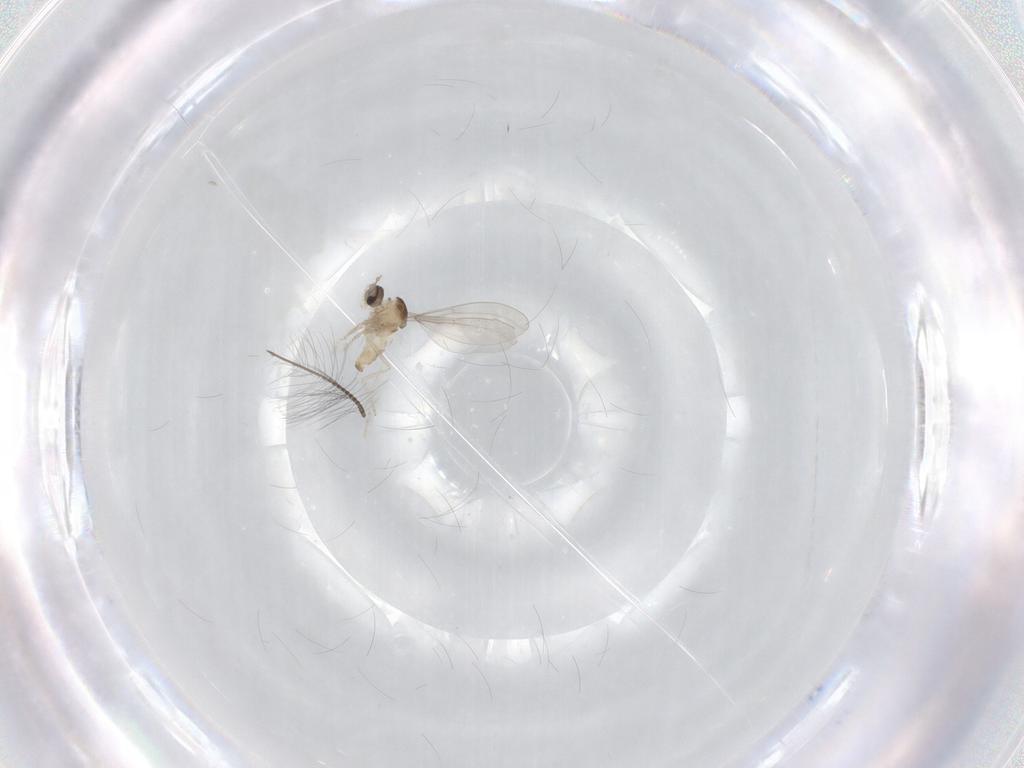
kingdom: Animalia
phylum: Arthropoda
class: Insecta
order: Diptera
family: Cecidomyiidae
